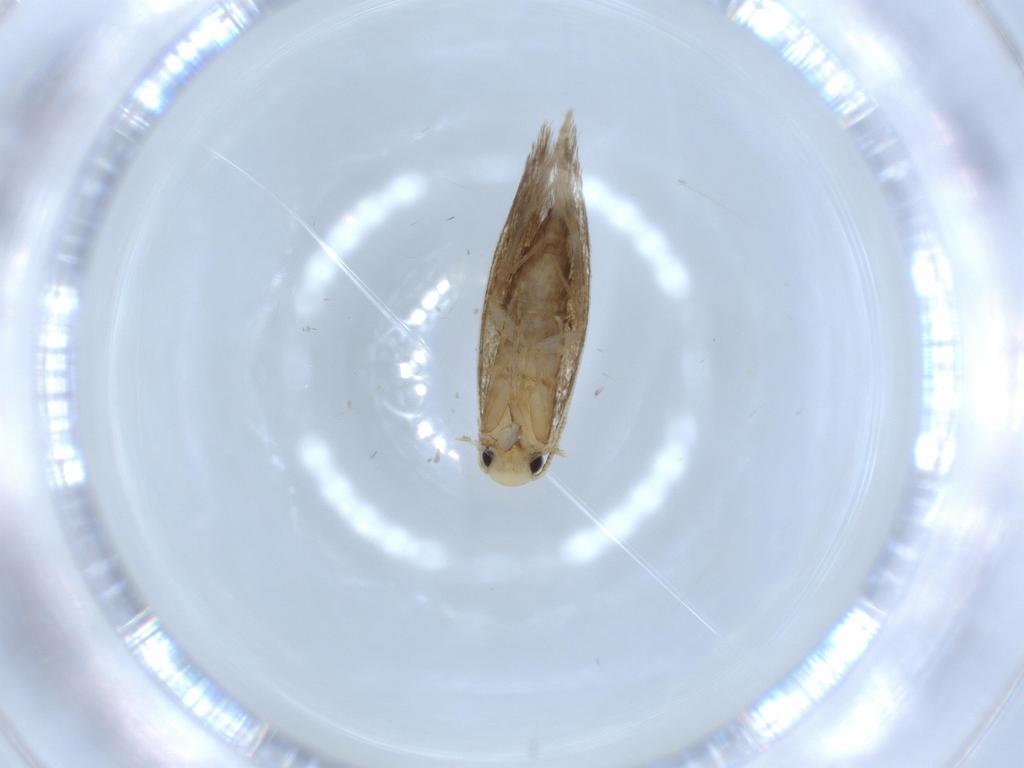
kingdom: Animalia
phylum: Arthropoda
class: Insecta
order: Lepidoptera
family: Tineidae
